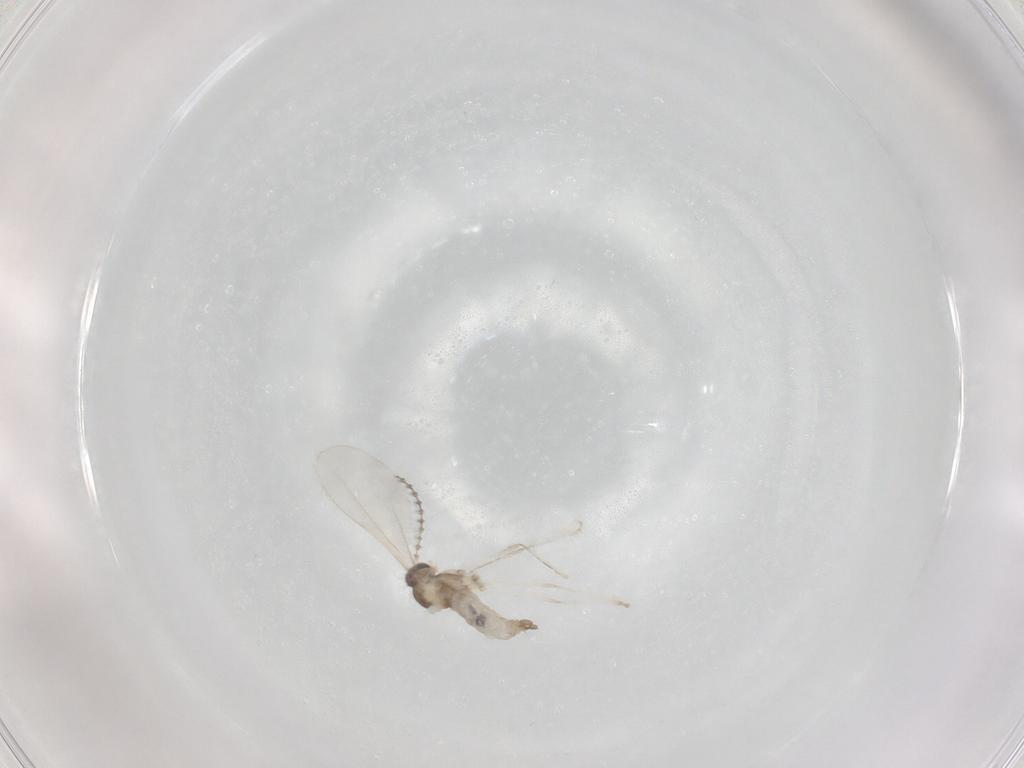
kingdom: Animalia
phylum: Arthropoda
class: Insecta
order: Diptera
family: Cecidomyiidae
